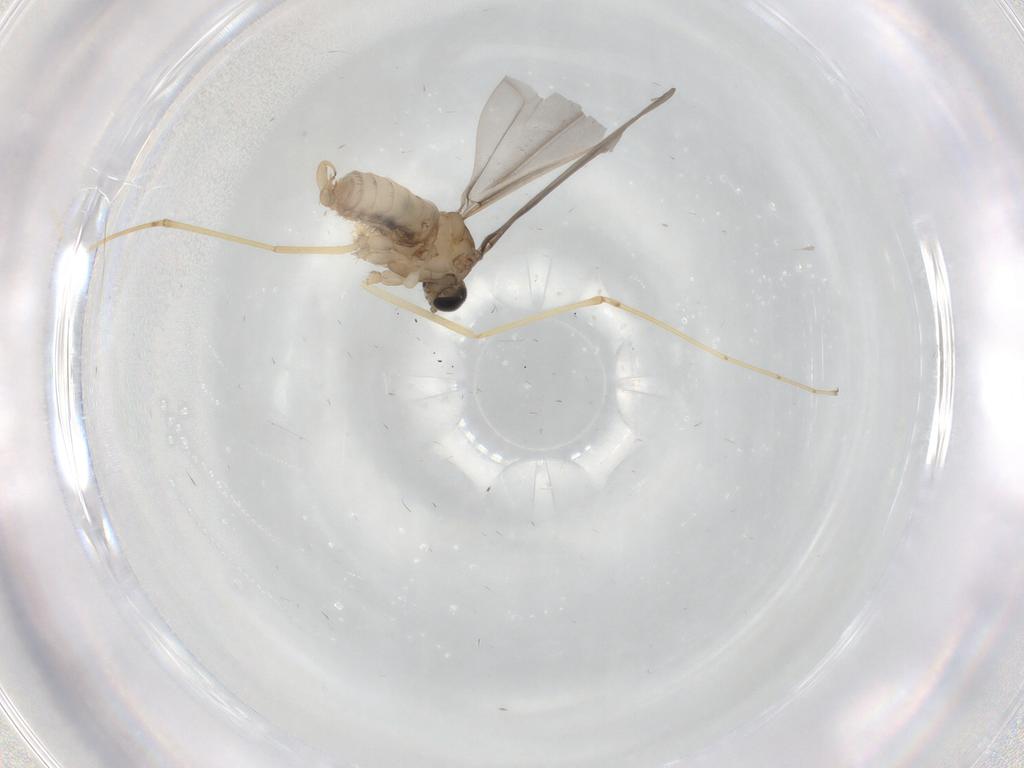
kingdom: Animalia
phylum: Arthropoda
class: Insecta
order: Diptera
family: Cecidomyiidae
